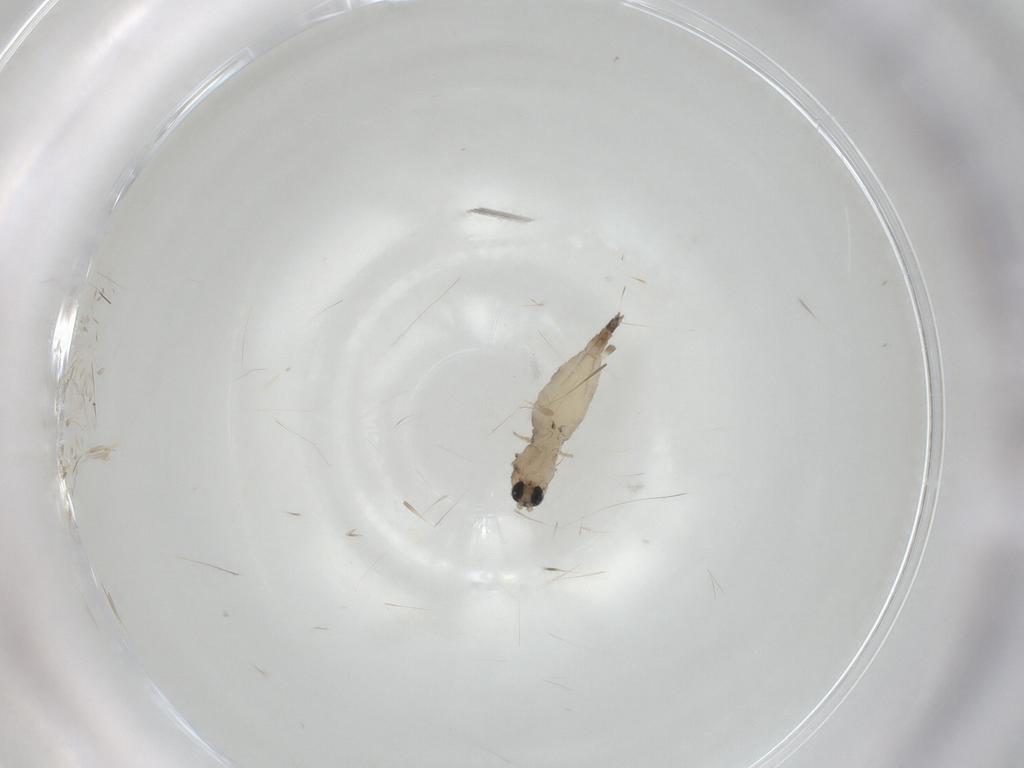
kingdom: Animalia
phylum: Arthropoda
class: Insecta
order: Diptera
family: Sciaridae
